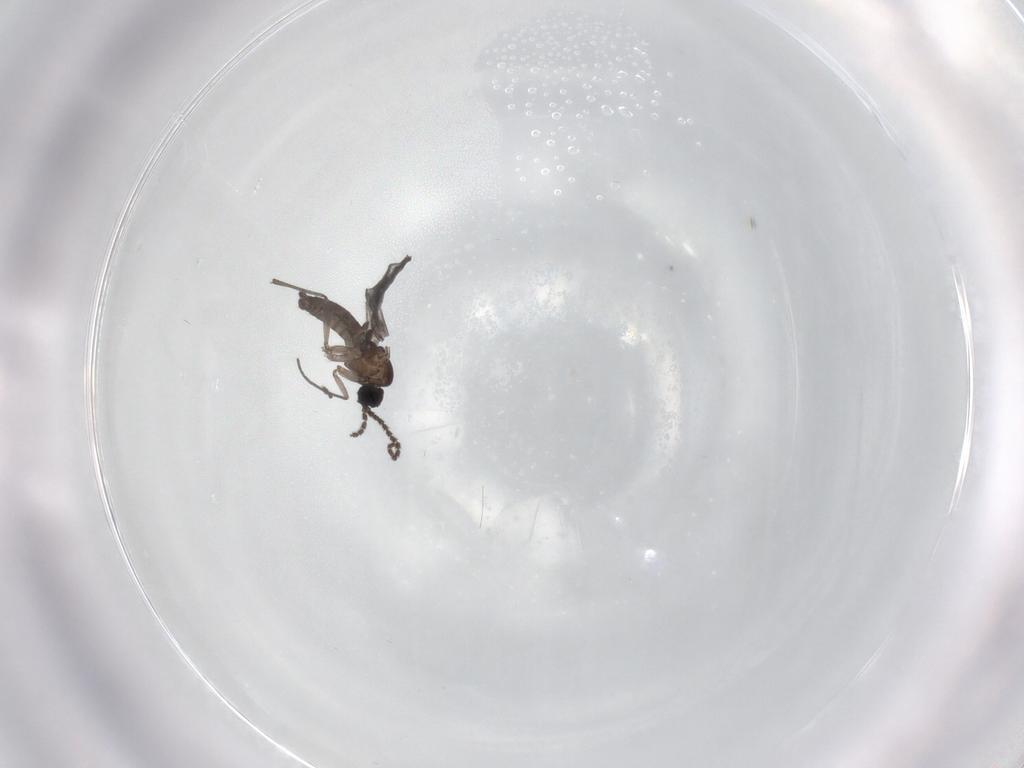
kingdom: Animalia
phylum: Arthropoda
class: Insecta
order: Diptera
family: Sciaridae
